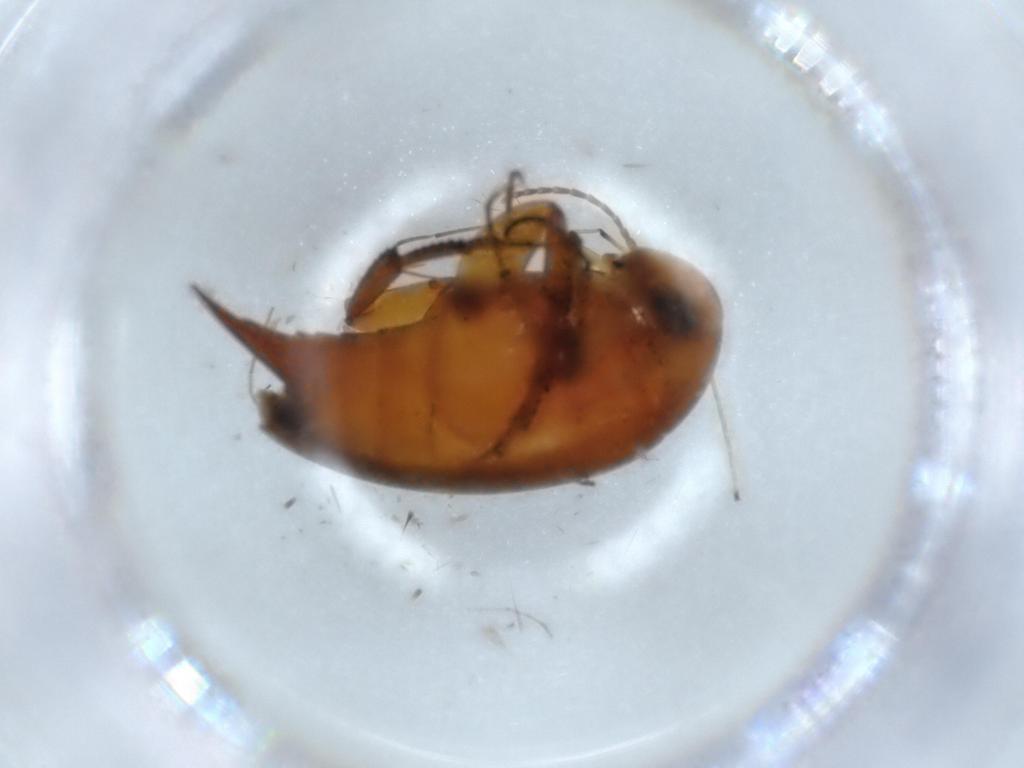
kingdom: Animalia
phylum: Arthropoda
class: Insecta
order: Coleoptera
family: Mordellidae
